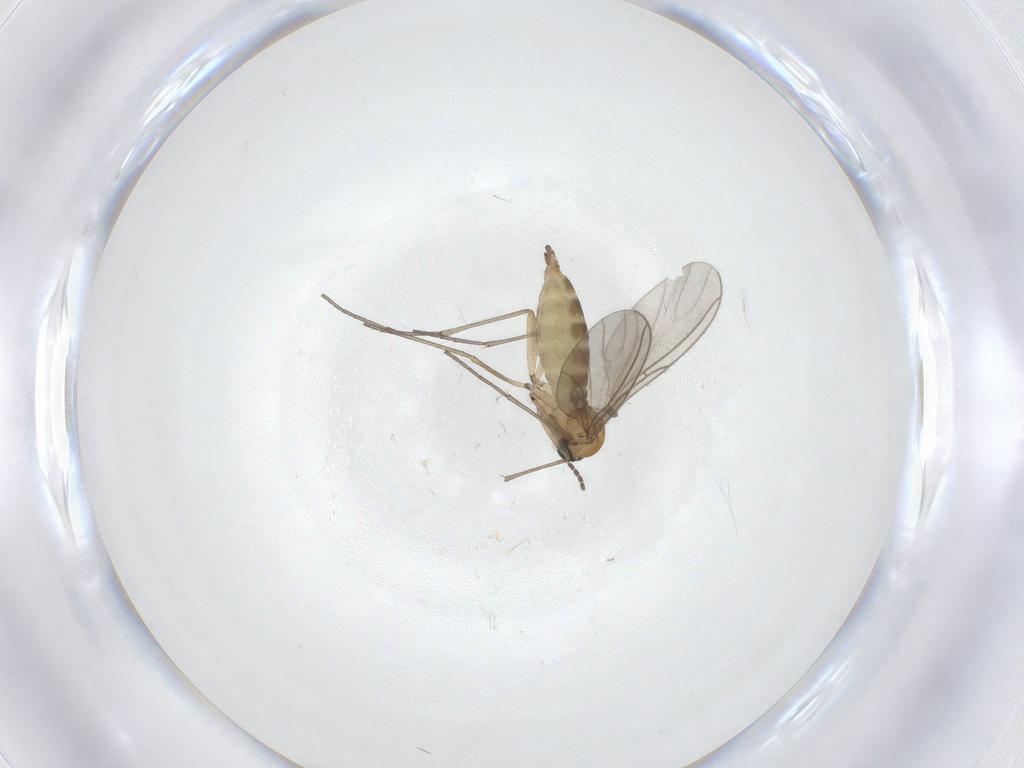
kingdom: Animalia
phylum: Arthropoda
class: Insecta
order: Diptera
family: Sciaridae
